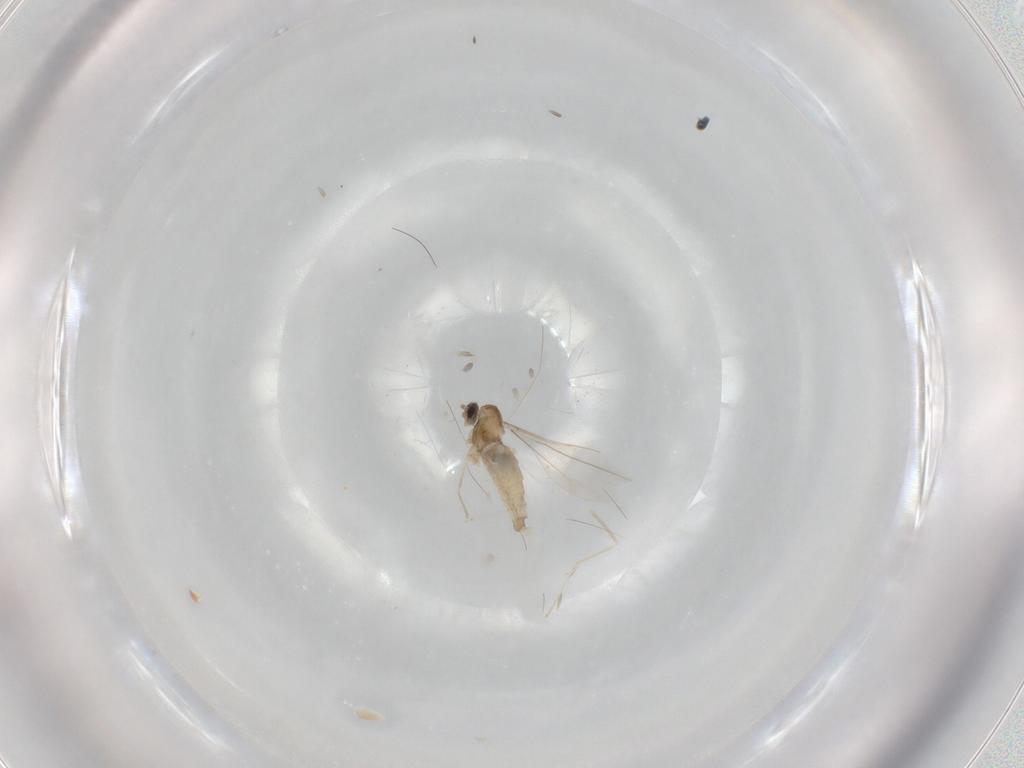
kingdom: Animalia
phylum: Arthropoda
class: Insecta
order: Diptera
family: Cecidomyiidae
